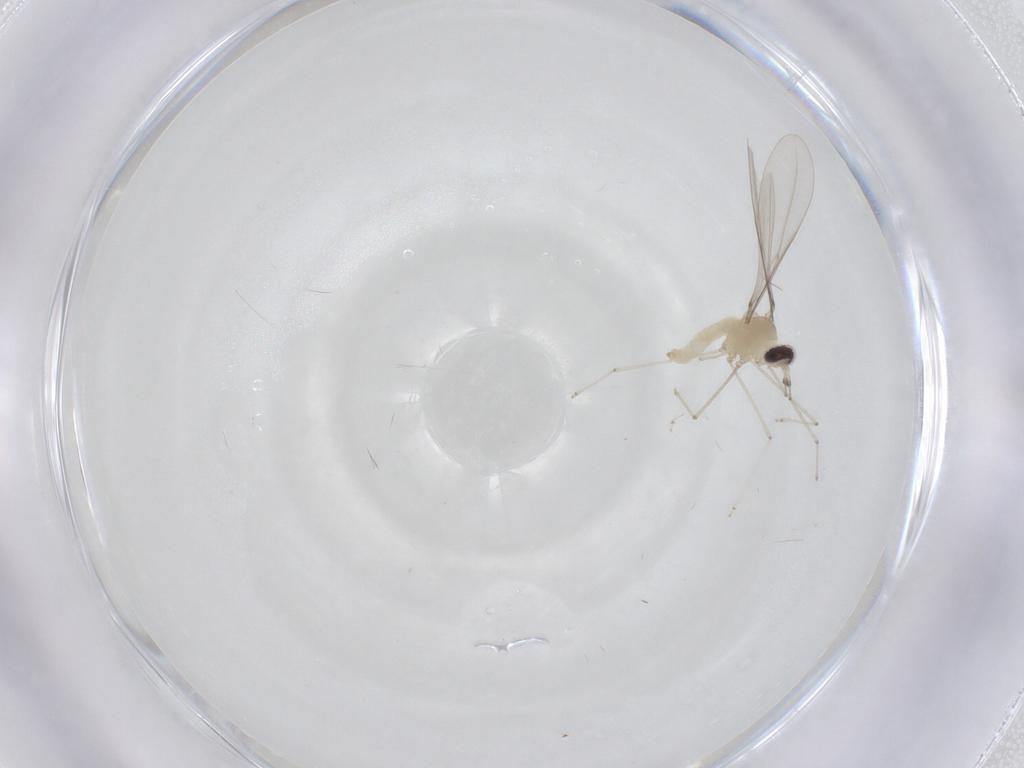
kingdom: Animalia
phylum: Arthropoda
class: Insecta
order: Diptera
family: Cecidomyiidae
